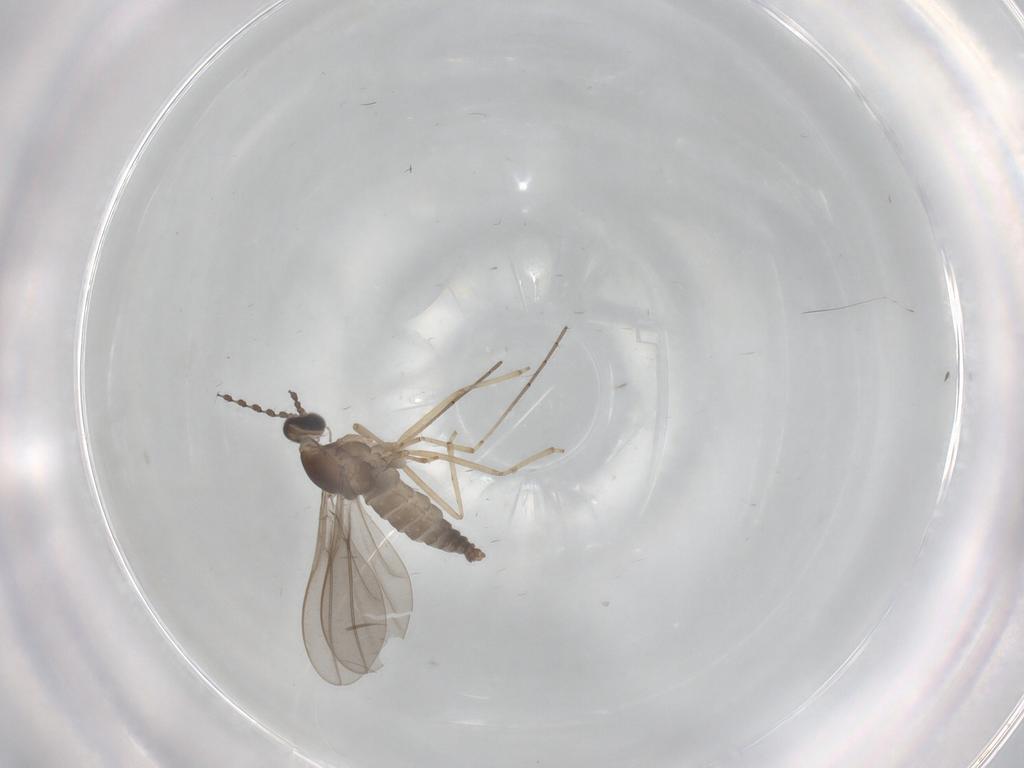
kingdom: Animalia
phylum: Arthropoda
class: Insecta
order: Diptera
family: Cecidomyiidae
